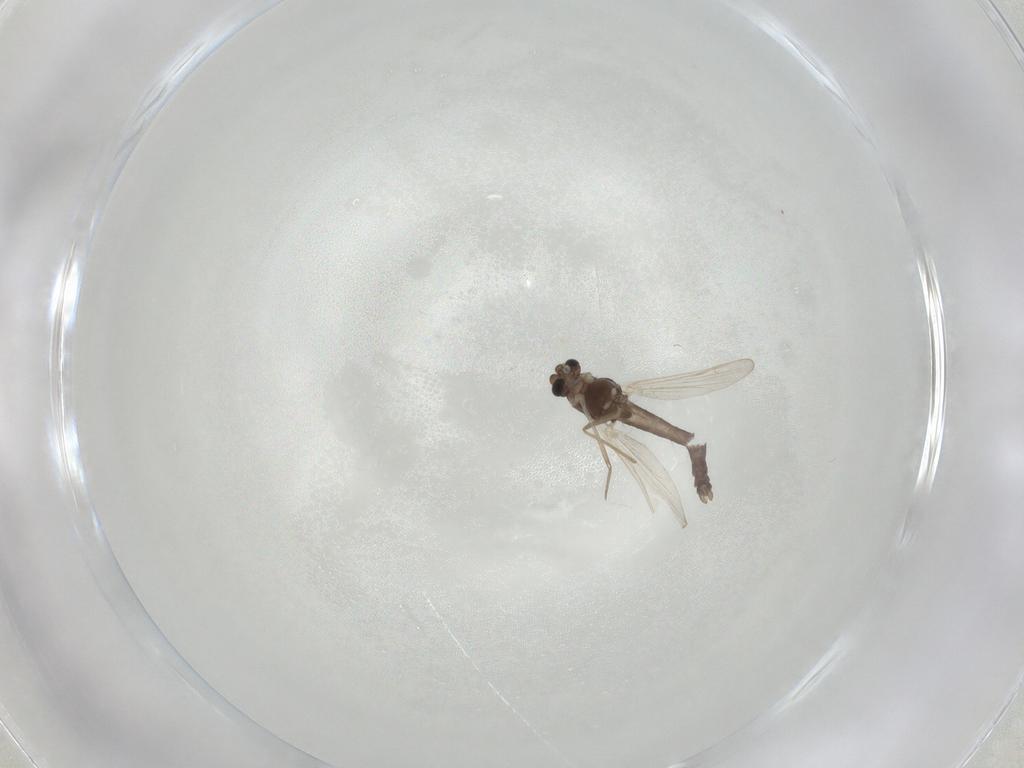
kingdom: Animalia
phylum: Arthropoda
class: Insecta
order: Diptera
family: Chironomidae
